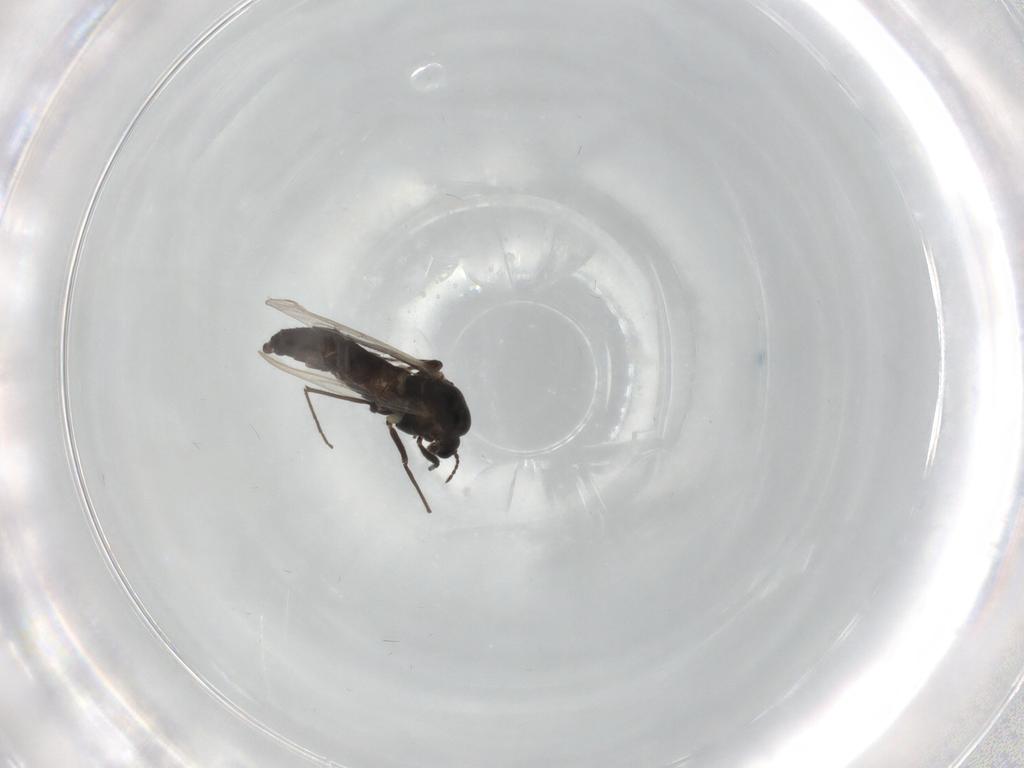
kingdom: Animalia
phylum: Arthropoda
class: Insecta
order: Diptera
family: Chironomidae
